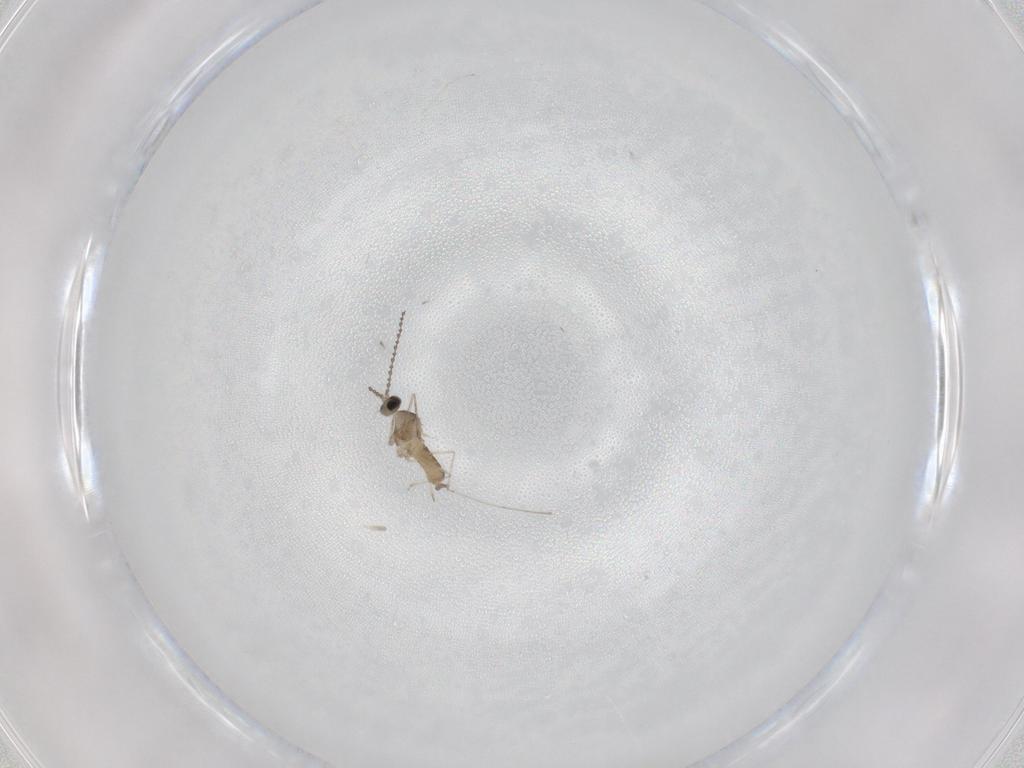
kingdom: Animalia
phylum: Arthropoda
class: Insecta
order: Diptera
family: Cecidomyiidae
